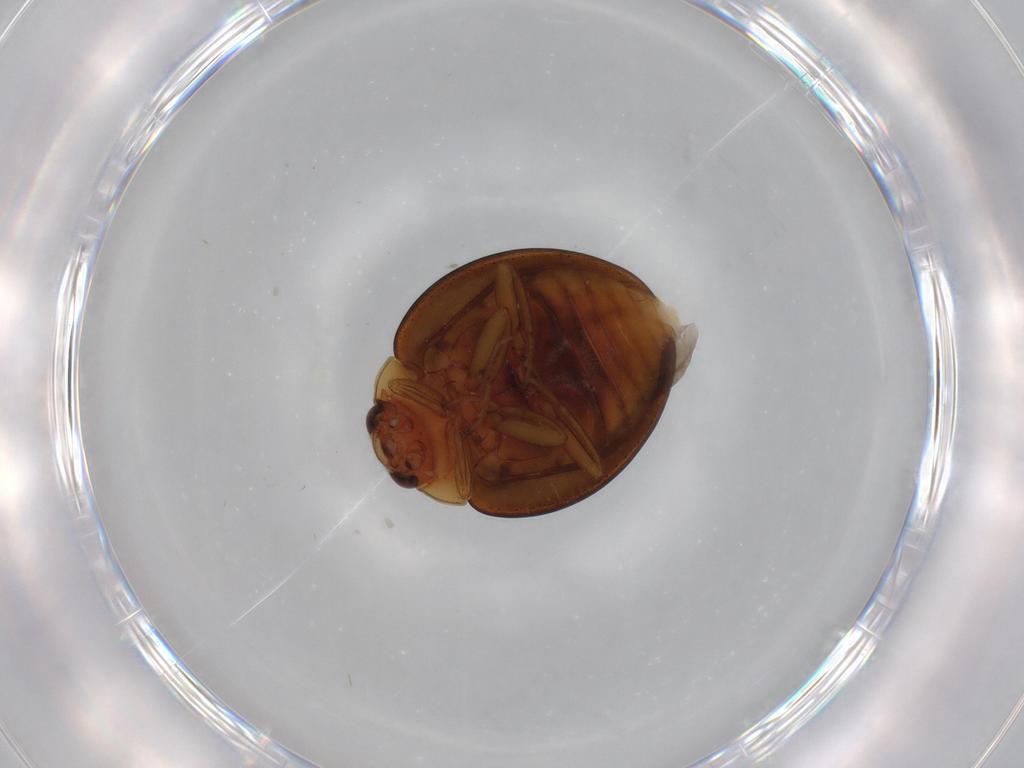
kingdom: Animalia
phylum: Arthropoda
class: Insecta
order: Coleoptera
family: Coccinellidae
